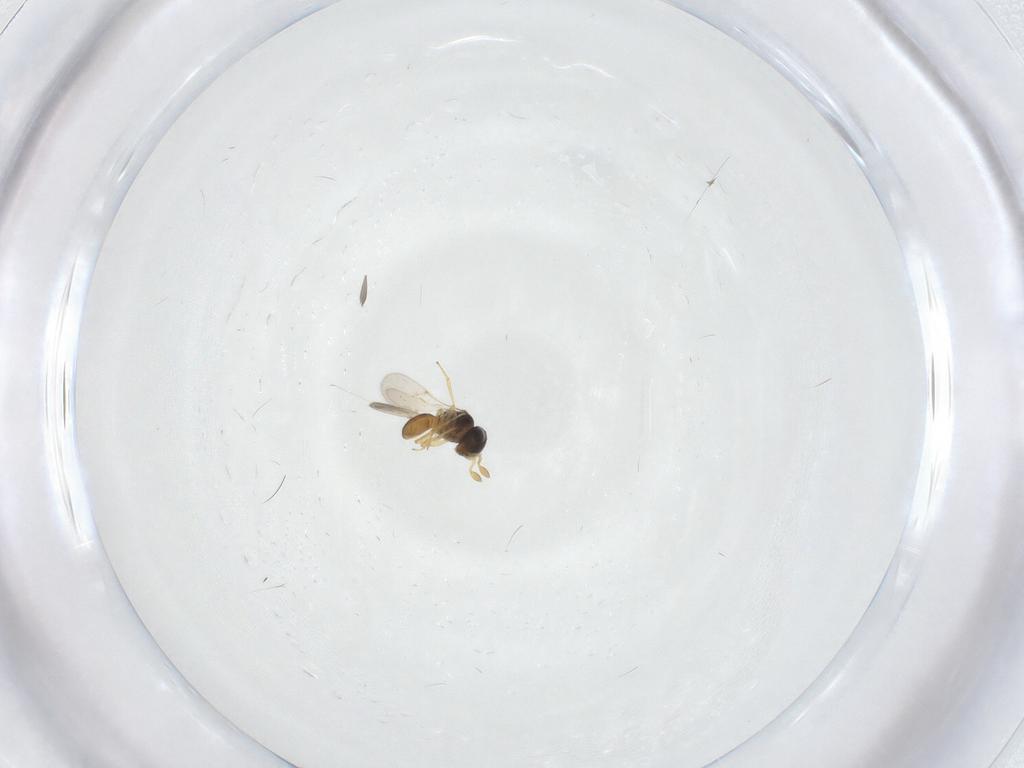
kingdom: Animalia
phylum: Arthropoda
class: Insecta
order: Hymenoptera
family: Scelionidae
